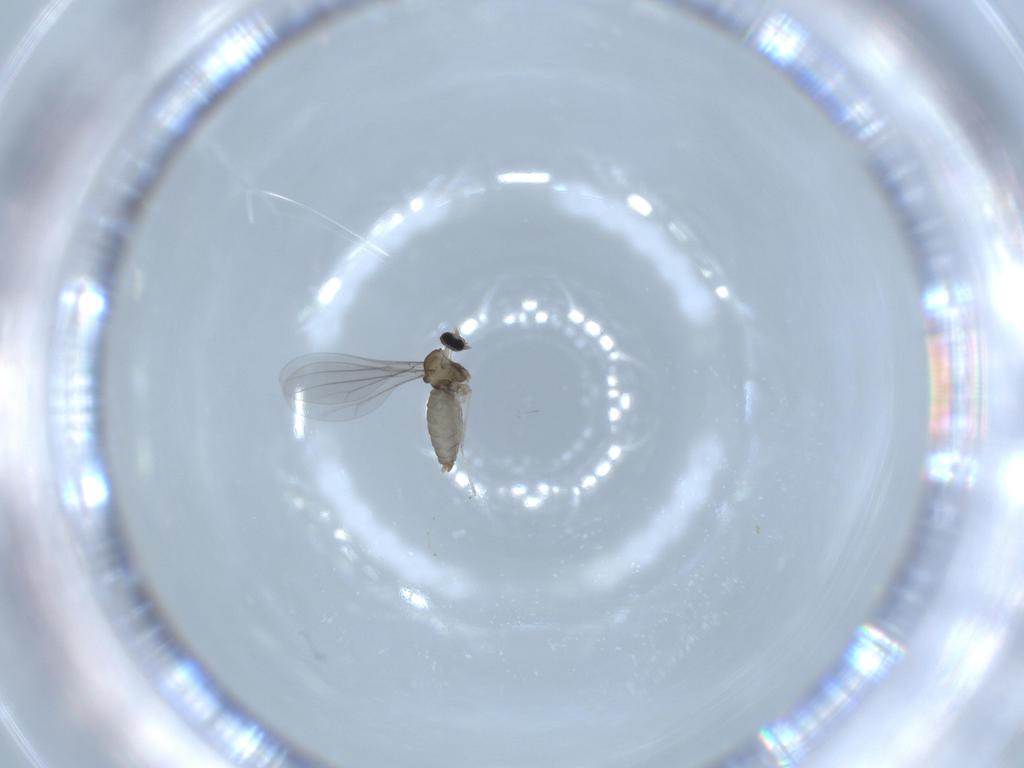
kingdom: Animalia
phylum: Arthropoda
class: Insecta
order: Diptera
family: Cecidomyiidae
